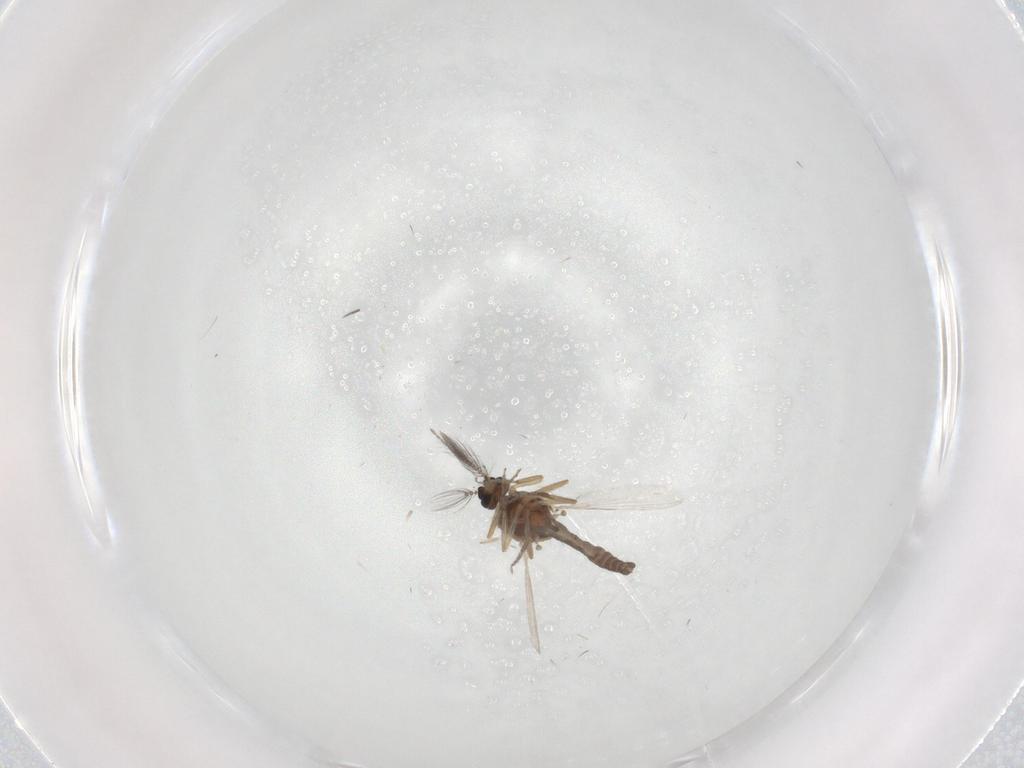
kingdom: Animalia
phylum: Arthropoda
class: Insecta
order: Diptera
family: Ceratopogonidae
